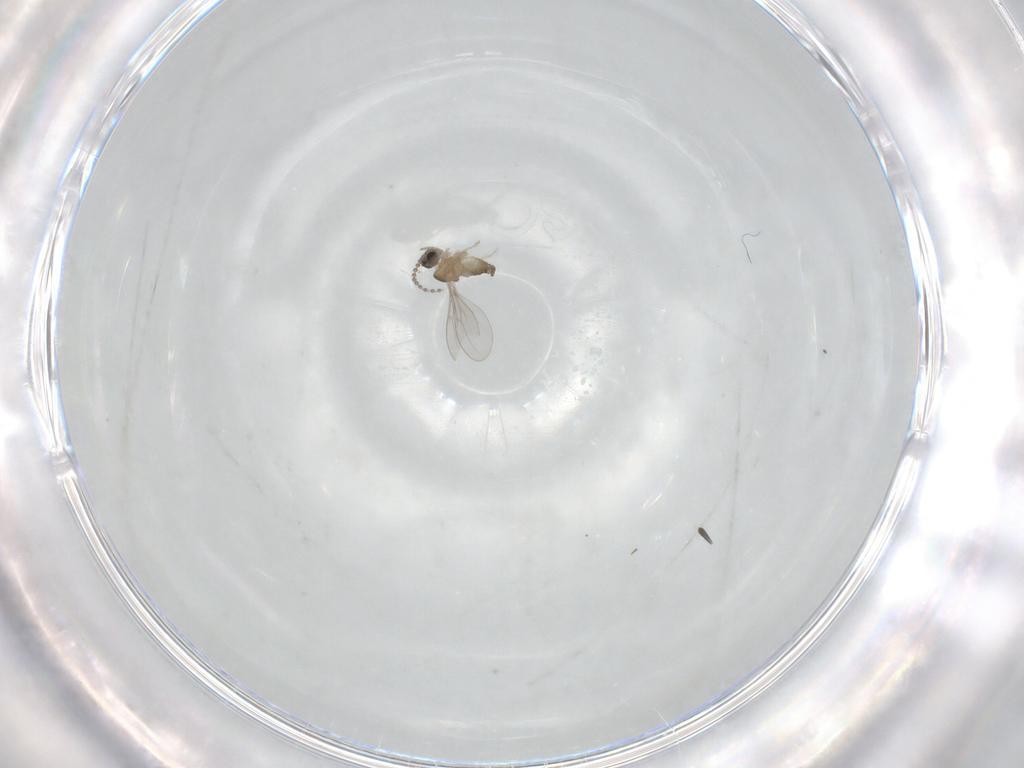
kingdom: Animalia
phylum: Arthropoda
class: Insecta
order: Diptera
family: Cecidomyiidae
